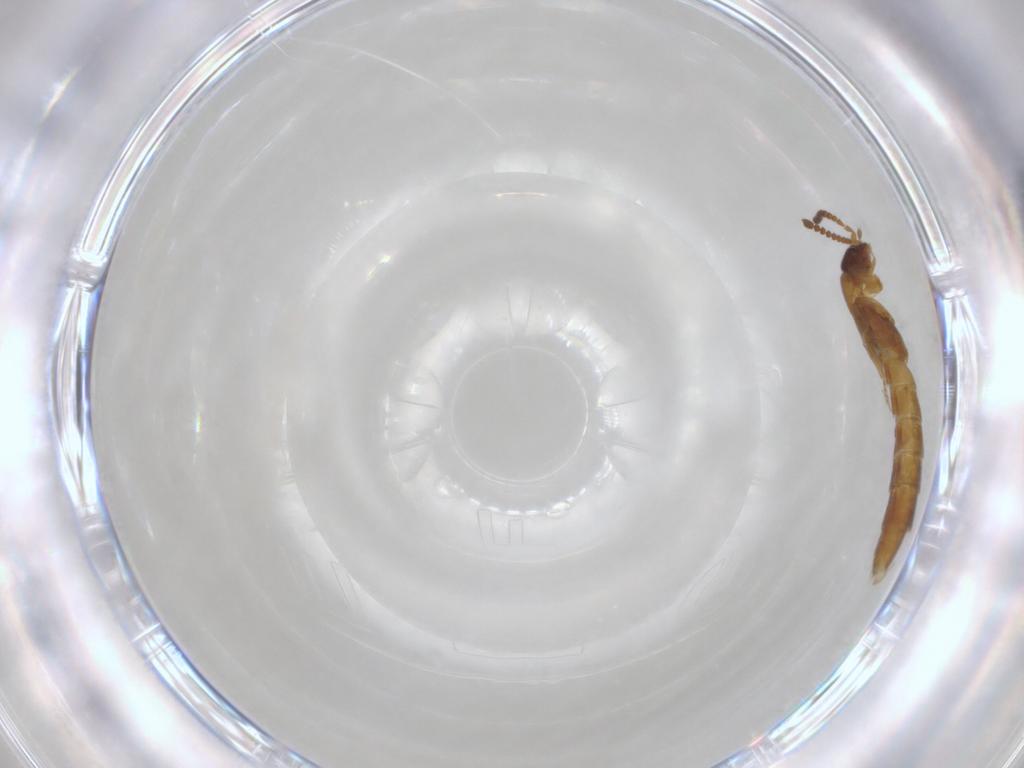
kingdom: Animalia
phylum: Arthropoda
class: Insecta
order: Coleoptera
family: Staphylinidae
